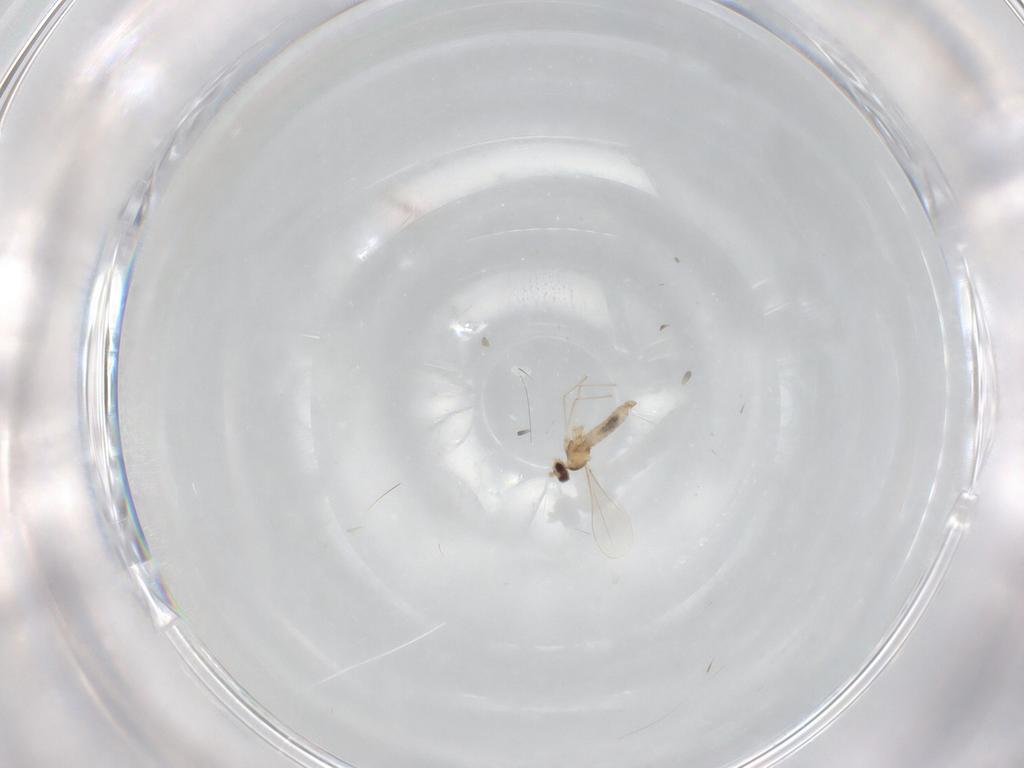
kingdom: Animalia
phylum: Arthropoda
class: Insecta
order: Diptera
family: Cecidomyiidae
